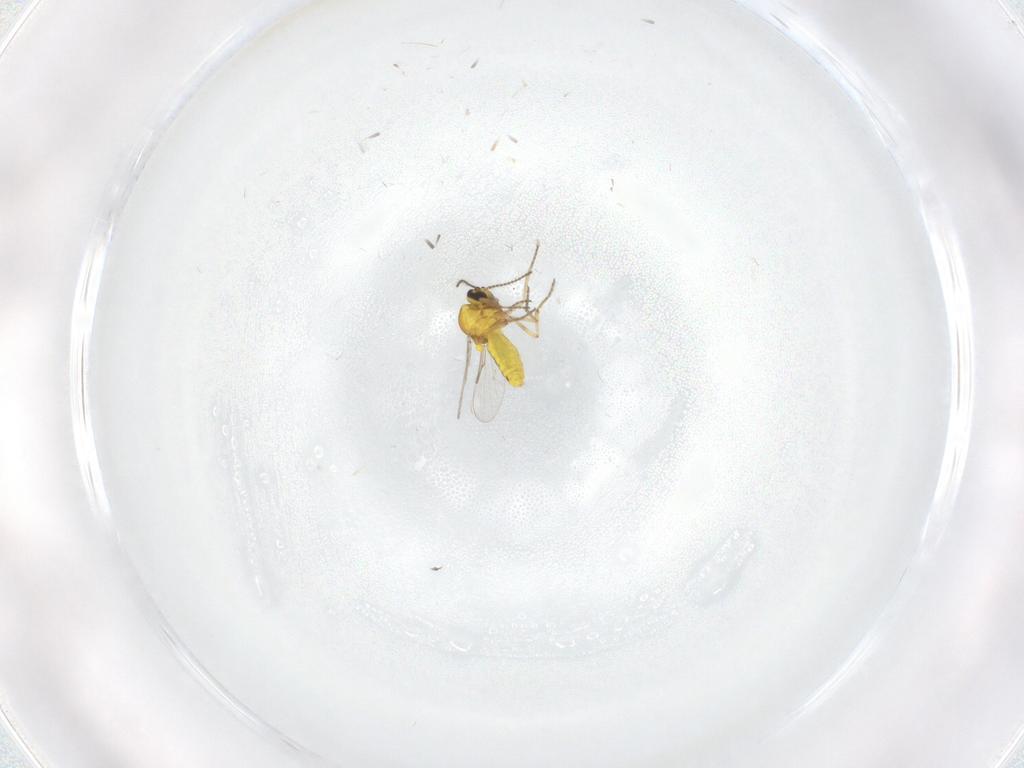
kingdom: Animalia
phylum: Arthropoda
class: Insecta
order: Diptera
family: Ceratopogonidae
